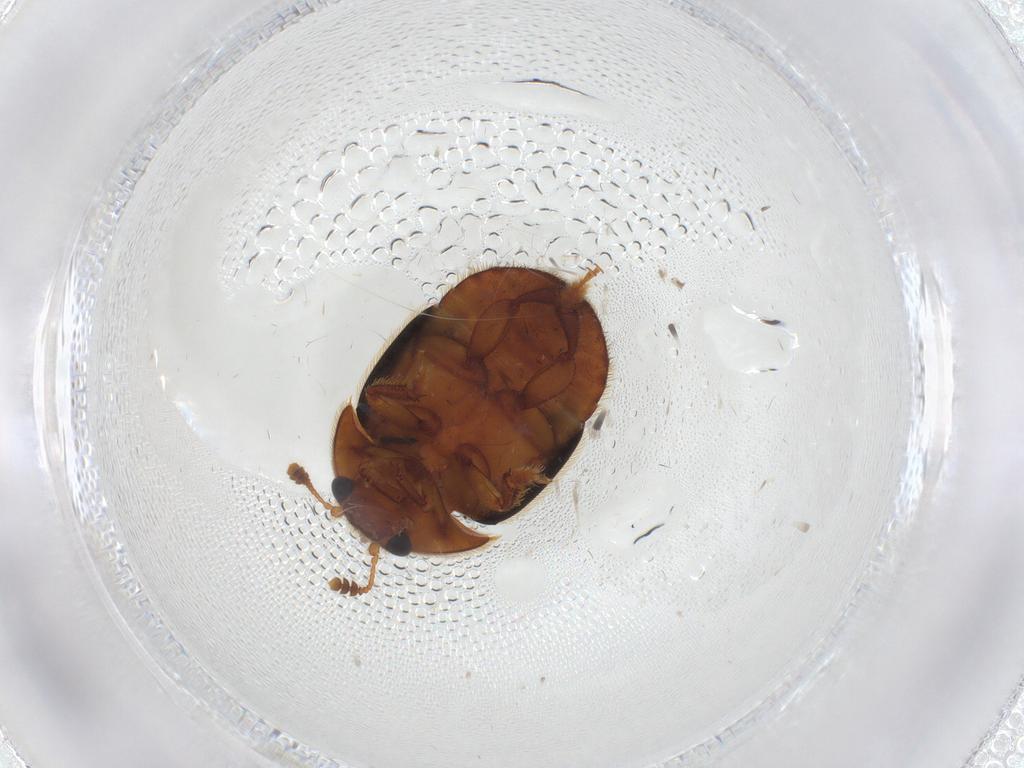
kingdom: Animalia
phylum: Arthropoda
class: Insecta
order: Coleoptera
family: Nitidulidae
